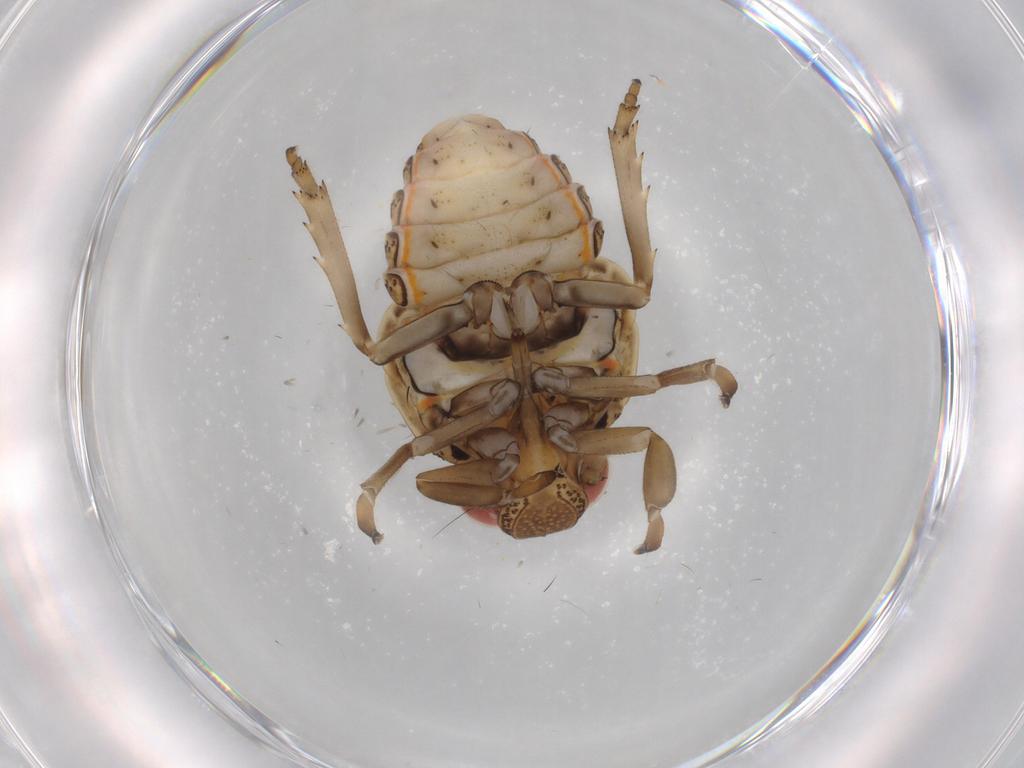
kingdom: Animalia
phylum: Arthropoda
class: Insecta
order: Hemiptera
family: Issidae
